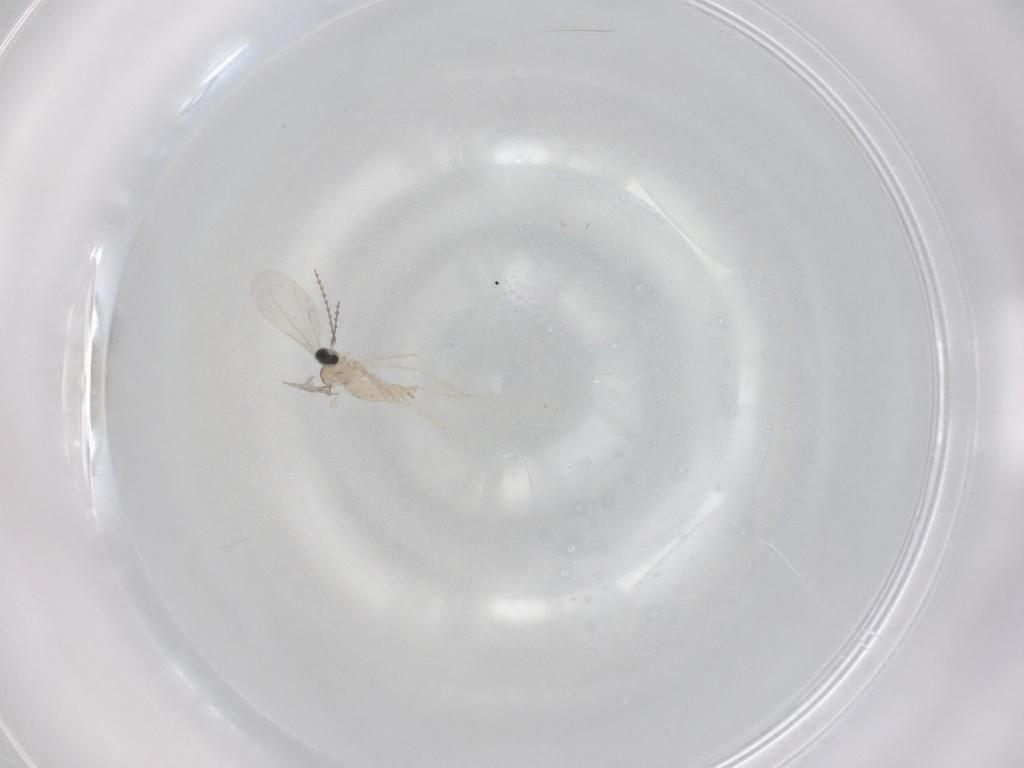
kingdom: Animalia
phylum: Arthropoda
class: Insecta
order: Diptera
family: Cecidomyiidae
